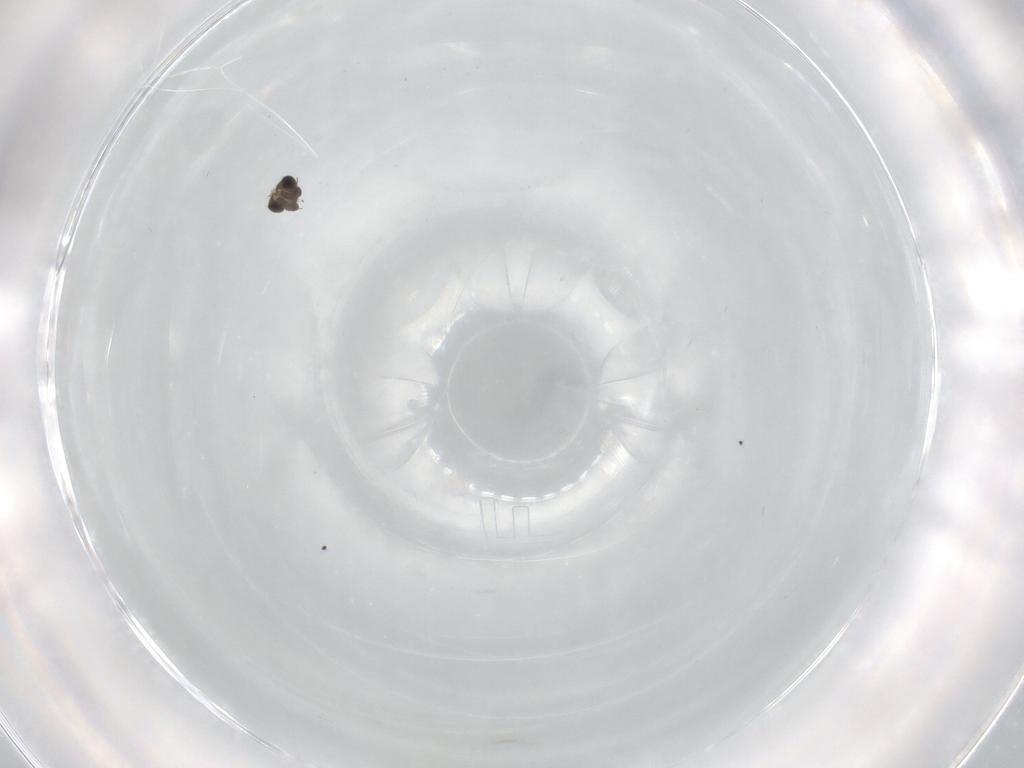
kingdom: Animalia
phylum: Arthropoda
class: Insecta
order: Diptera
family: Phoridae
